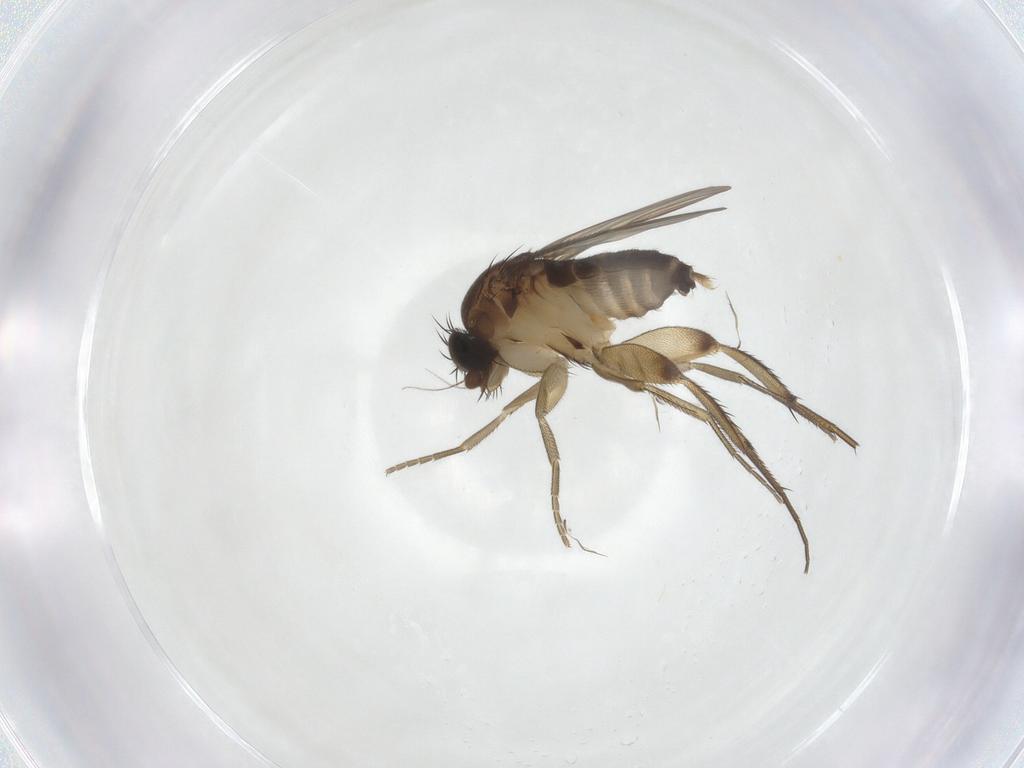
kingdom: Animalia
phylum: Arthropoda
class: Insecta
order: Diptera
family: Phoridae
